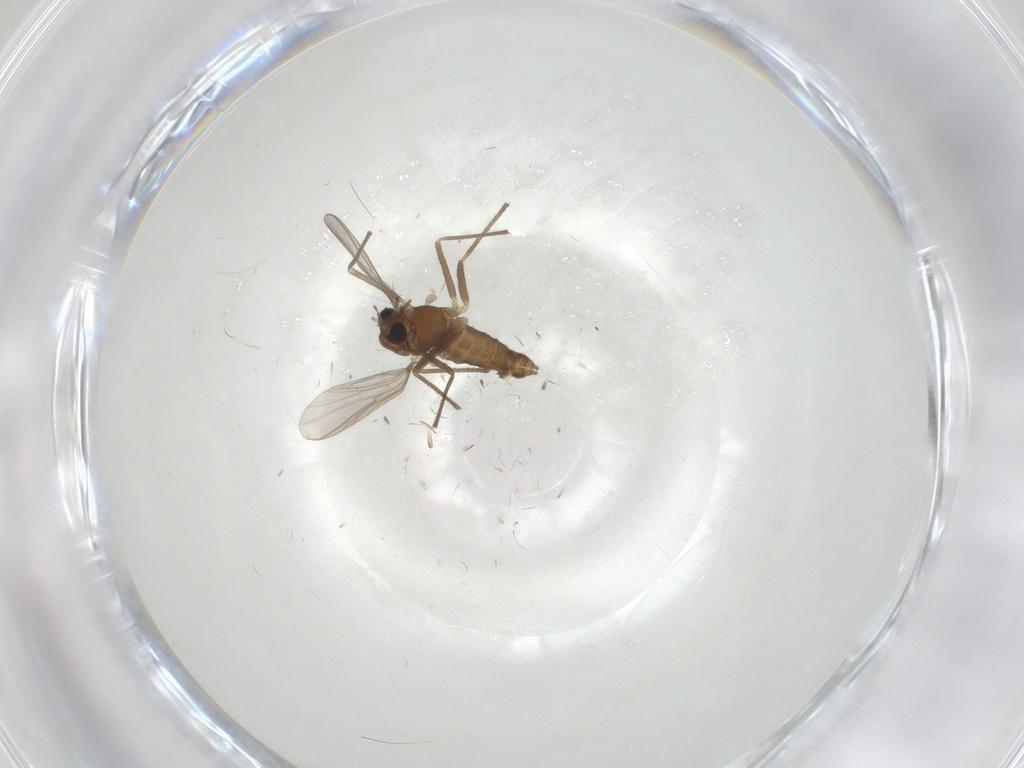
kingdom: Animalia
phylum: Arthropoda
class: Insecta
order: Diptera
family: Chironomidae
